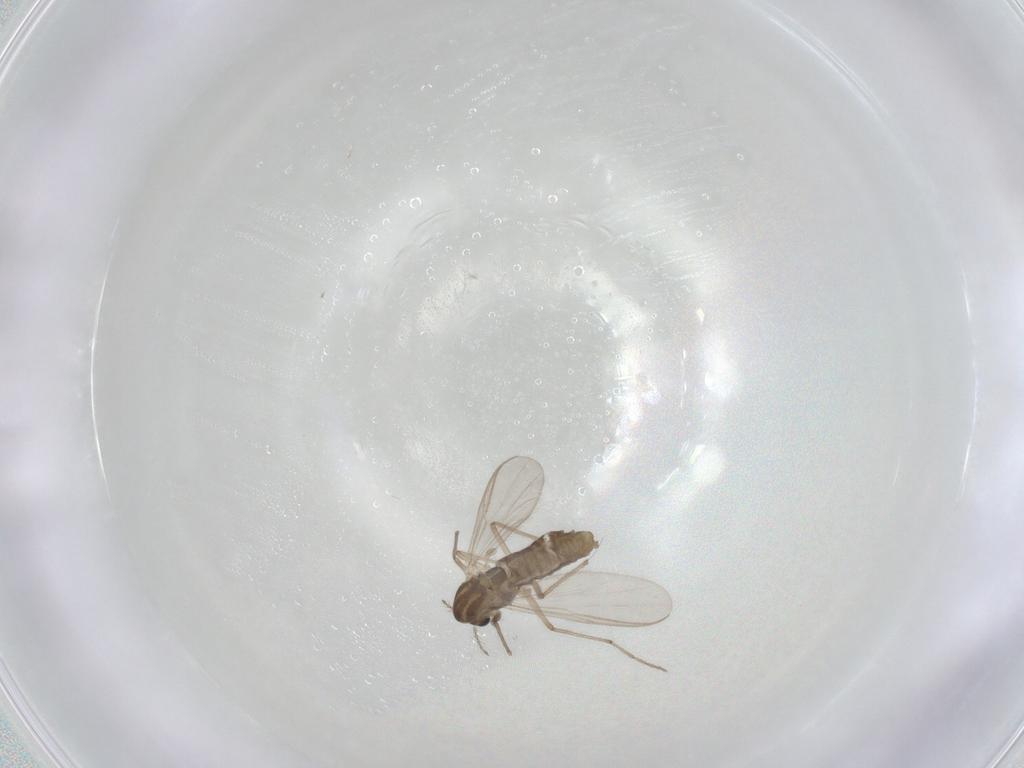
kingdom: Animalia
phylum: Arthropoda
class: Insecta
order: Diptera
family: Chironomidae
